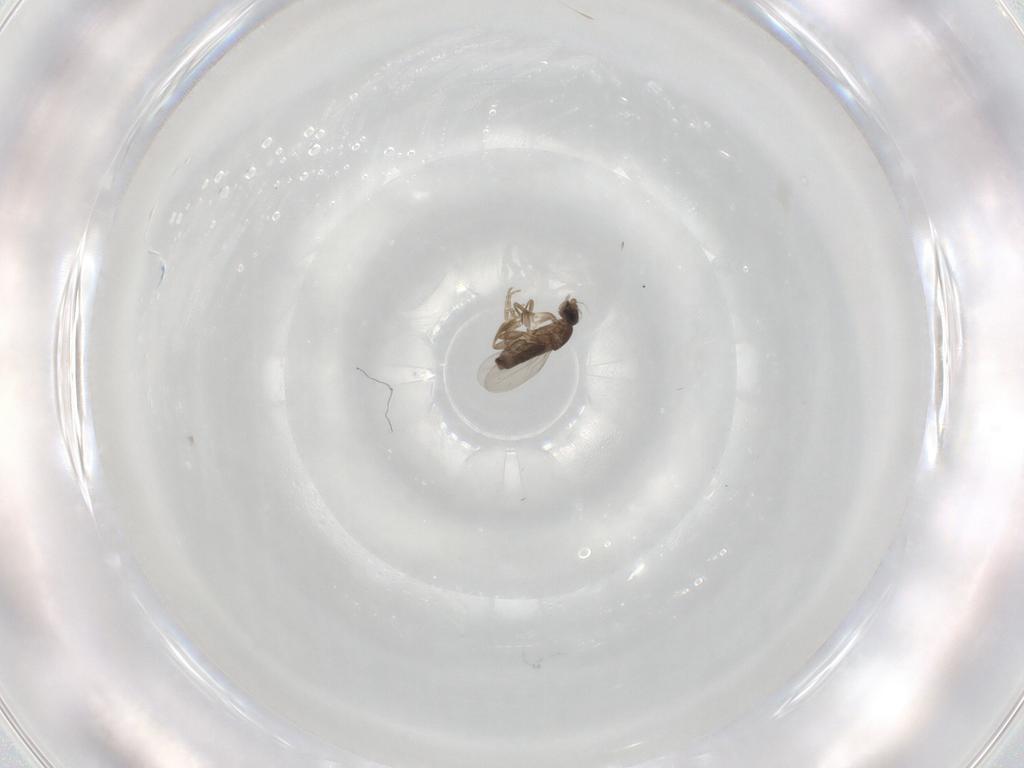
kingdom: Animalia
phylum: Arthropoda
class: Insecta
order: Diptera
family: Phoridae
